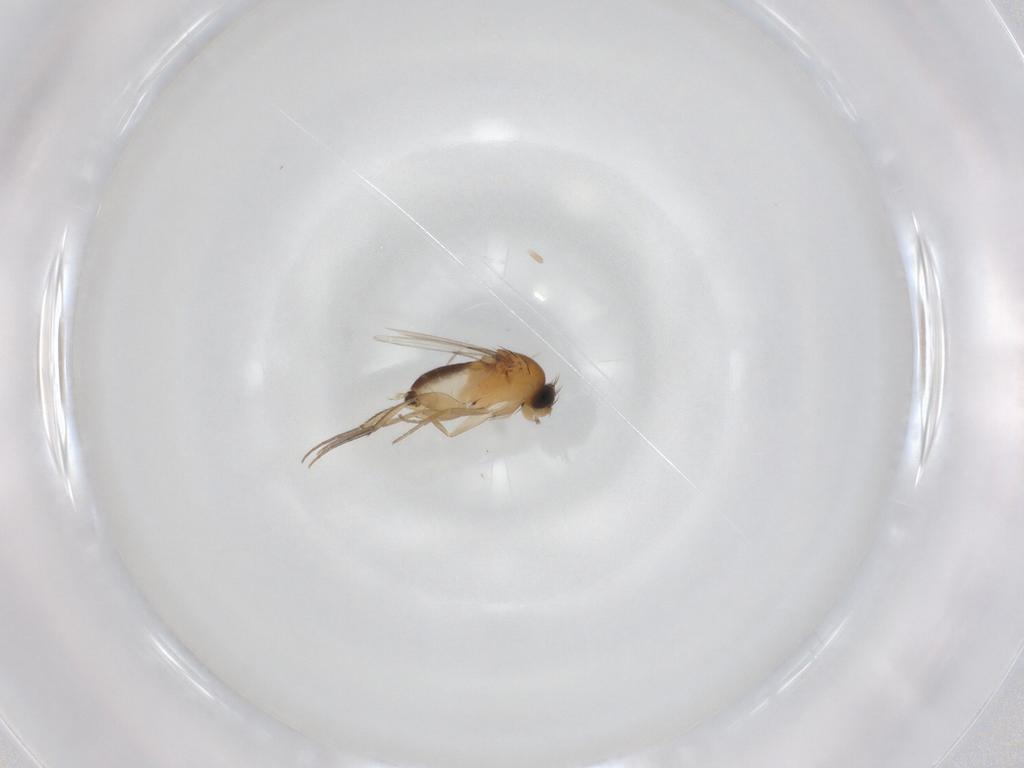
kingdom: Animalia
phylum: Arthropoda
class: Insecta
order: Diptera
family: Phoridae
